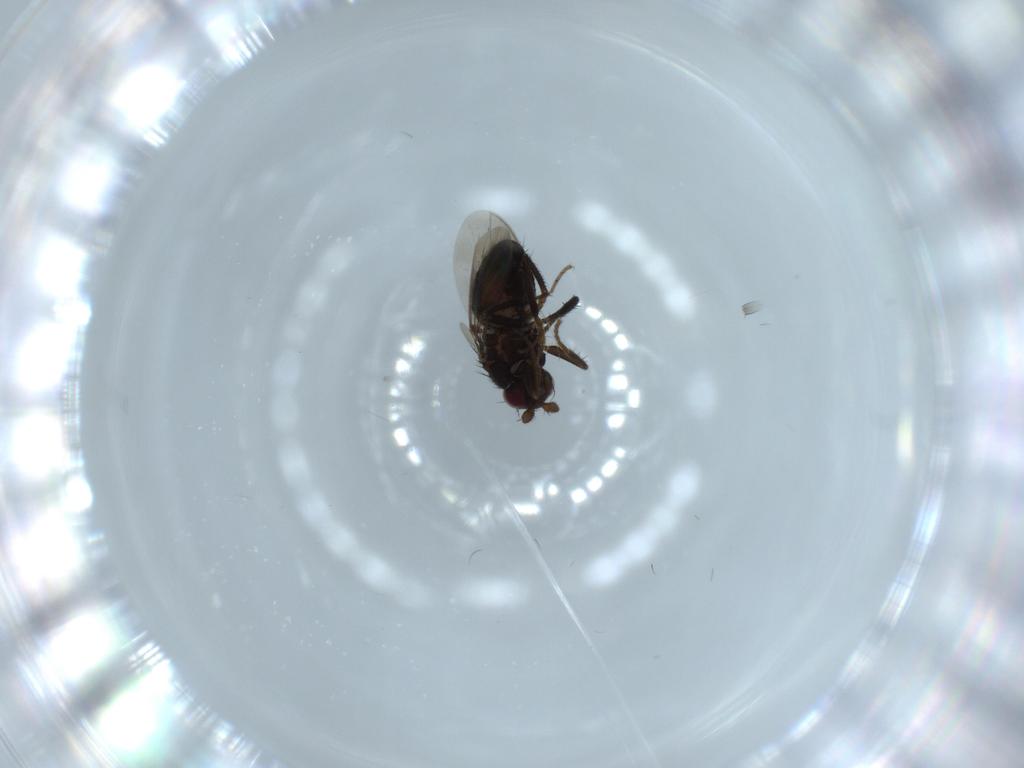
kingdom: Animalia
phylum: Arthropoda
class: Insecta
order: Diptera
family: Sphaeroceridae
